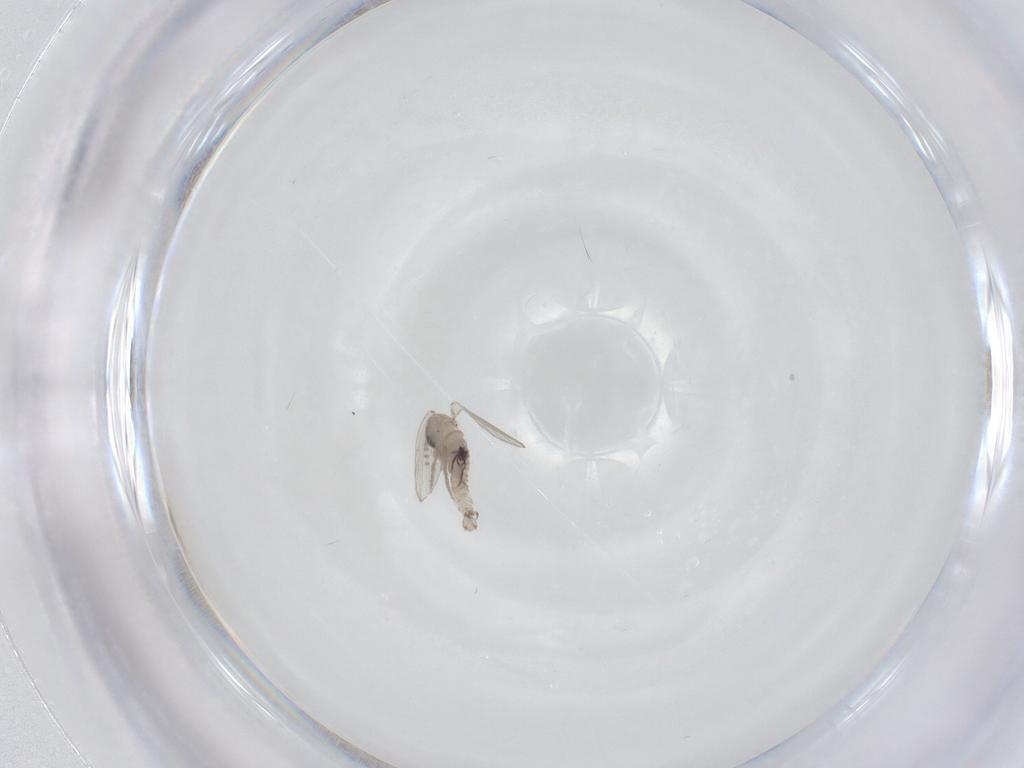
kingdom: Animalia
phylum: Arthropoda
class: Insecta
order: Diptera
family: Psychodidae
